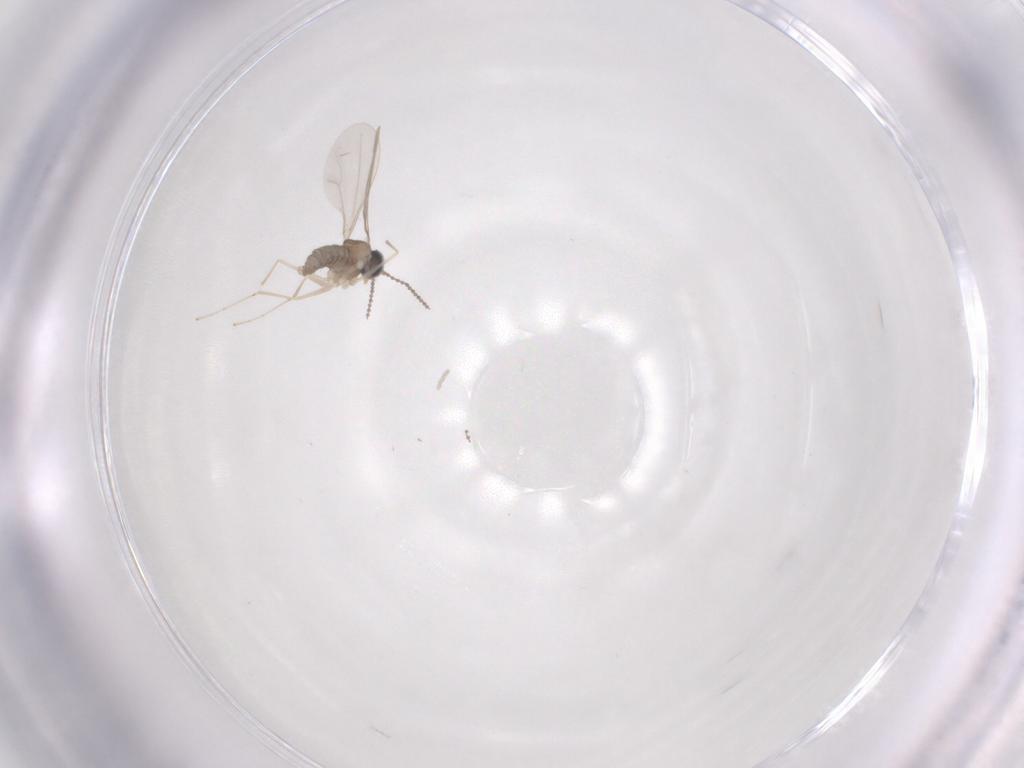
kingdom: Animalia
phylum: Arthropoda
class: Insecta
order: Diptera
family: Cecidomyiidae
